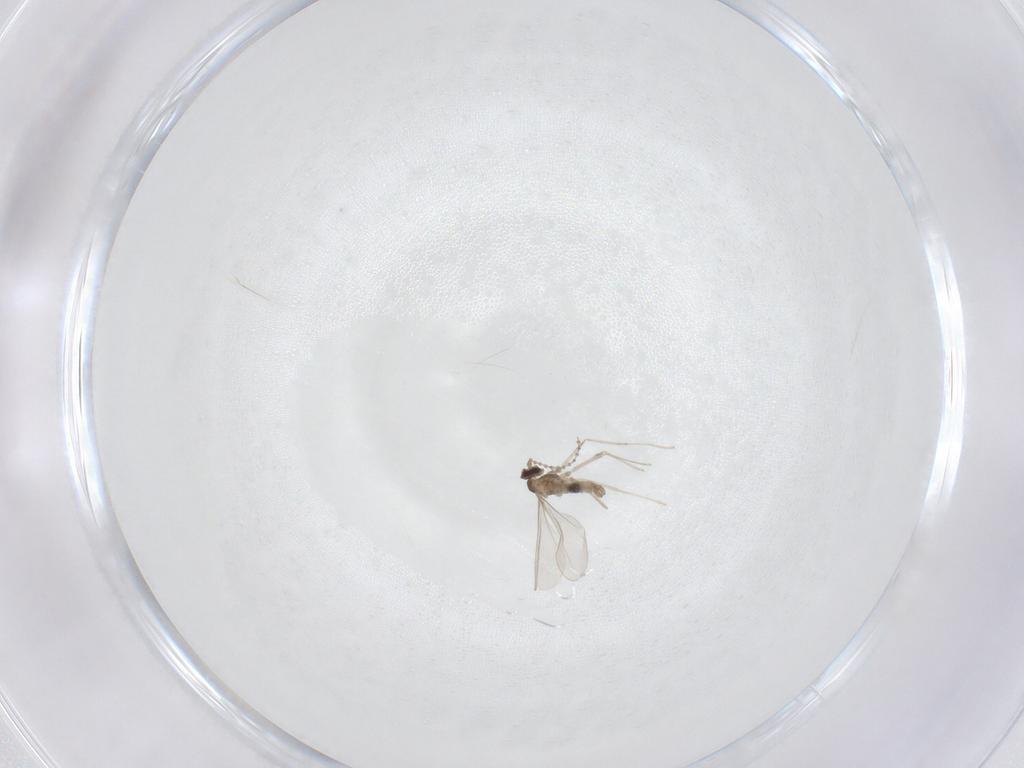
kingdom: Animalia
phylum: Arthropoda
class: Insecta
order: Diptera
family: Cecidomyiidae
